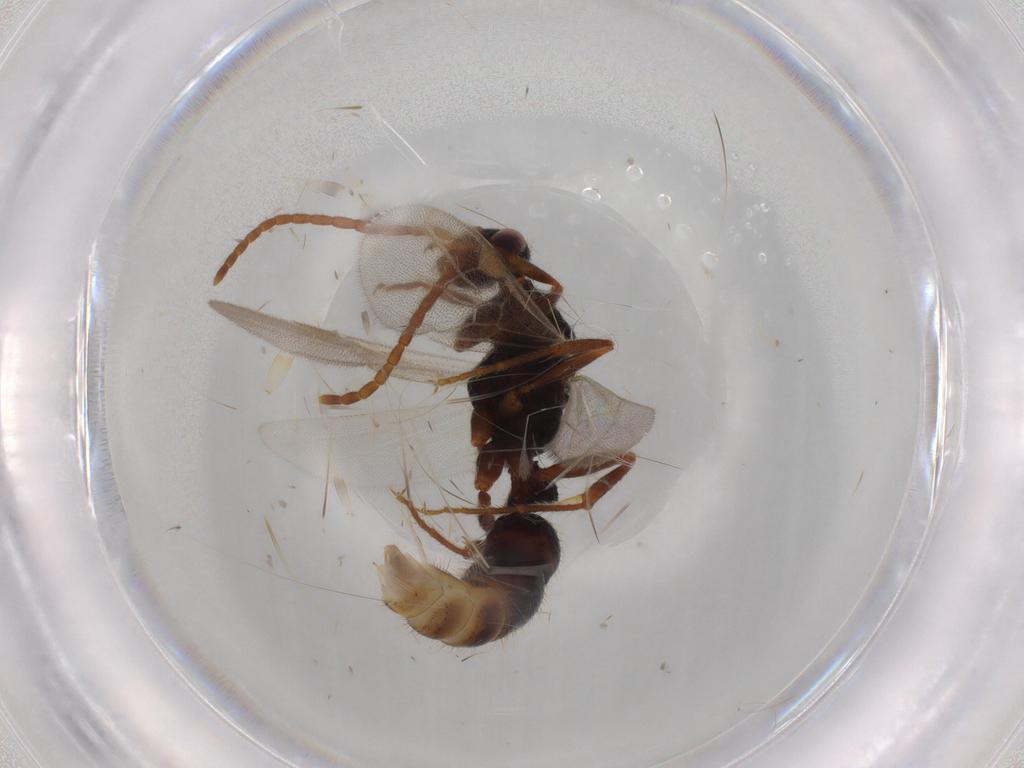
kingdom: Animalia
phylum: Arthropoda
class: Insecta
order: Hymenoptera
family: Formicidae
